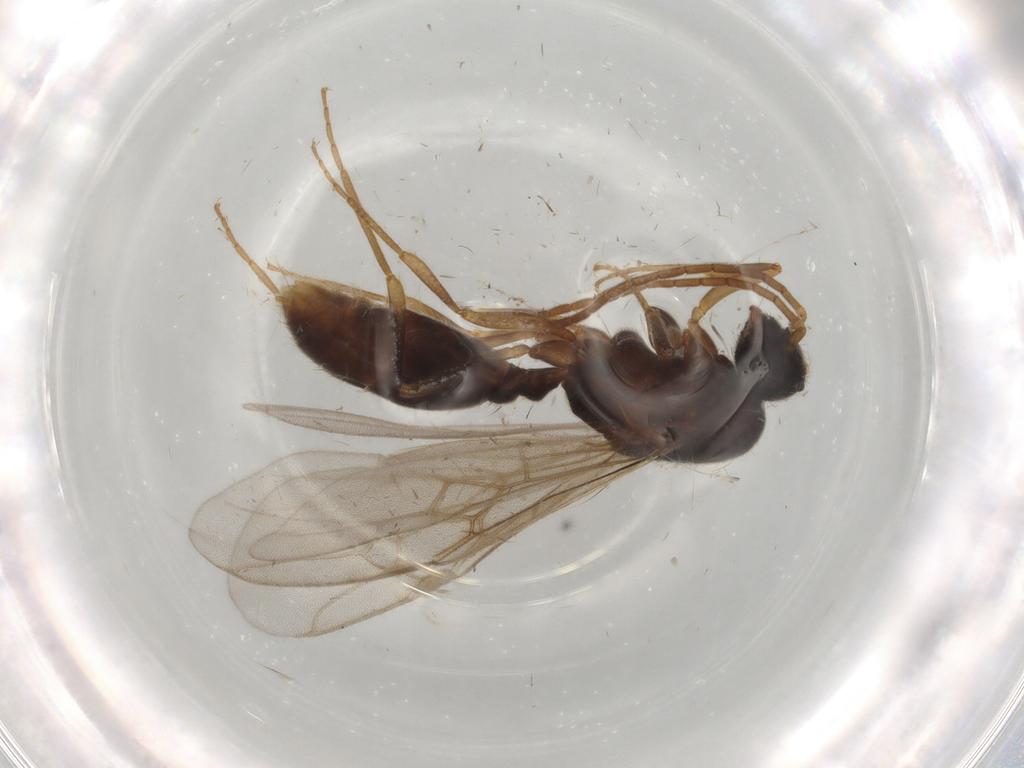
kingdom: Animalia
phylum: Arthropoda
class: Insecta
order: Hymenoptera
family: Formicidae
